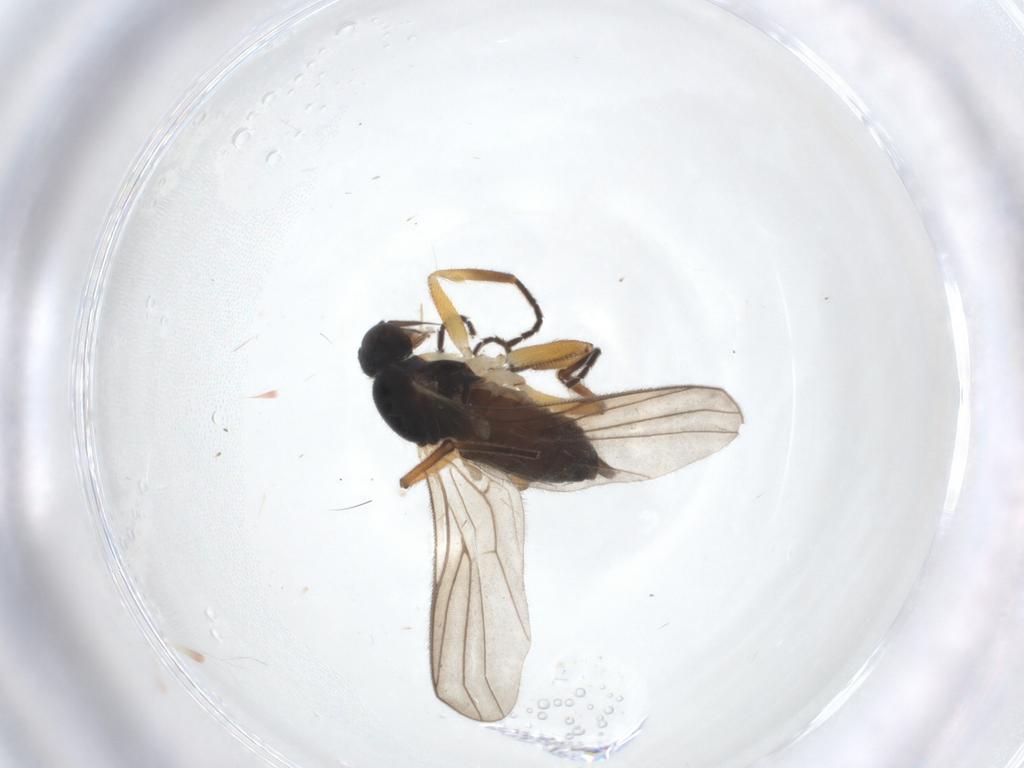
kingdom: Animalia
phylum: Arthropoda
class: Insecta
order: Diptera
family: Hybotidae
